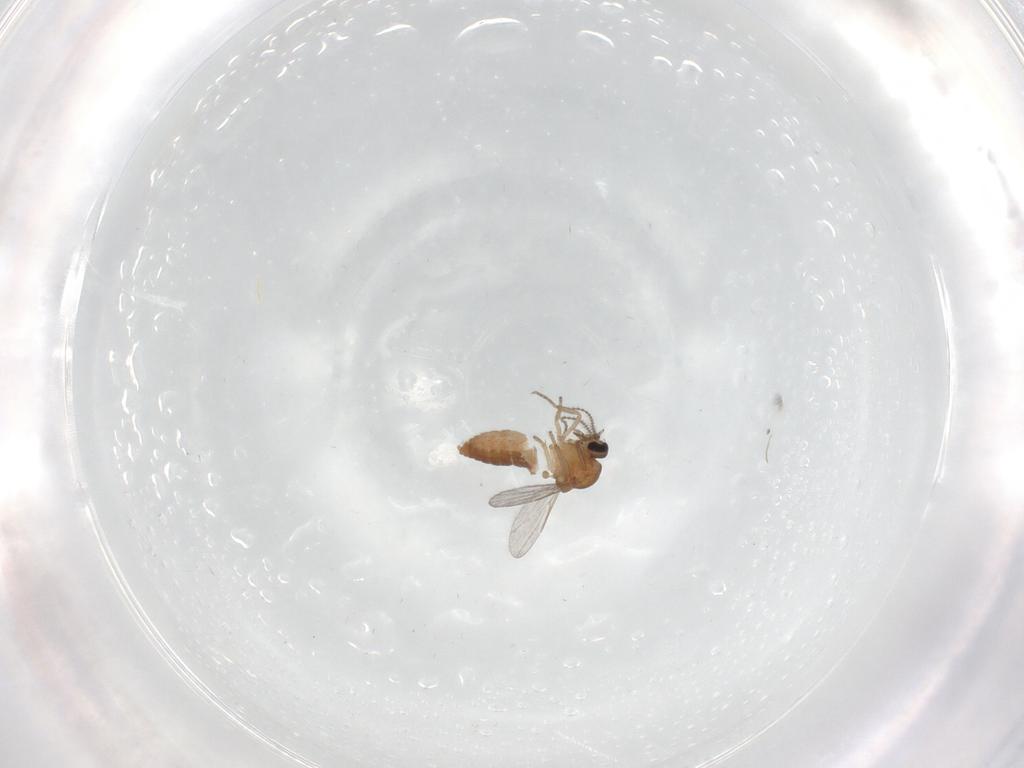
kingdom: Animalia
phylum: Arthropoda
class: Insecta
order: Diptera
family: Ceratopogonidae
